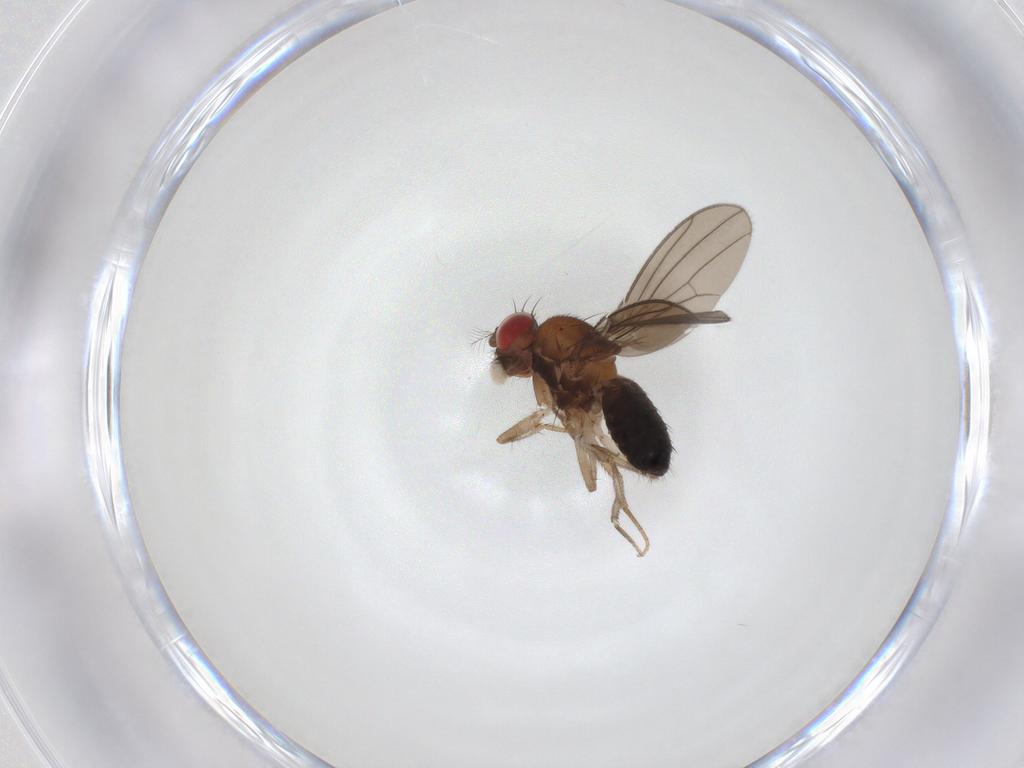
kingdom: Animalia
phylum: Arthropoda
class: Insecta
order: Diptera
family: Drosophilidae
